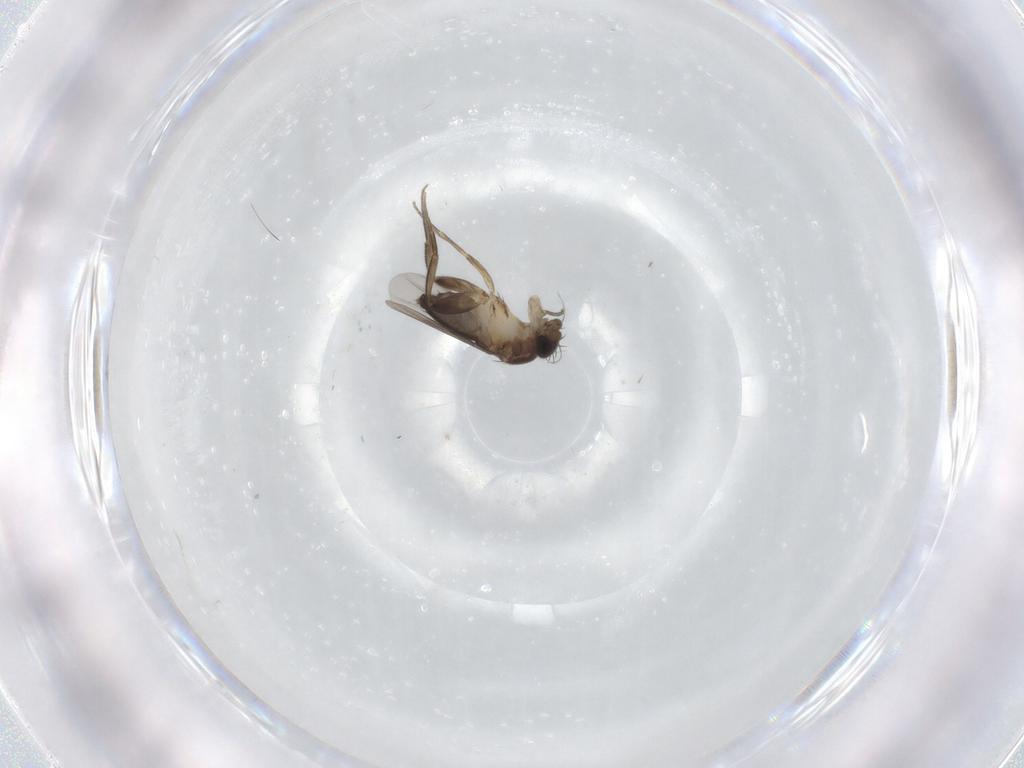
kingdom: Animalia
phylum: Arthropoda
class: Insecta
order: Diptera
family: Phoridae
